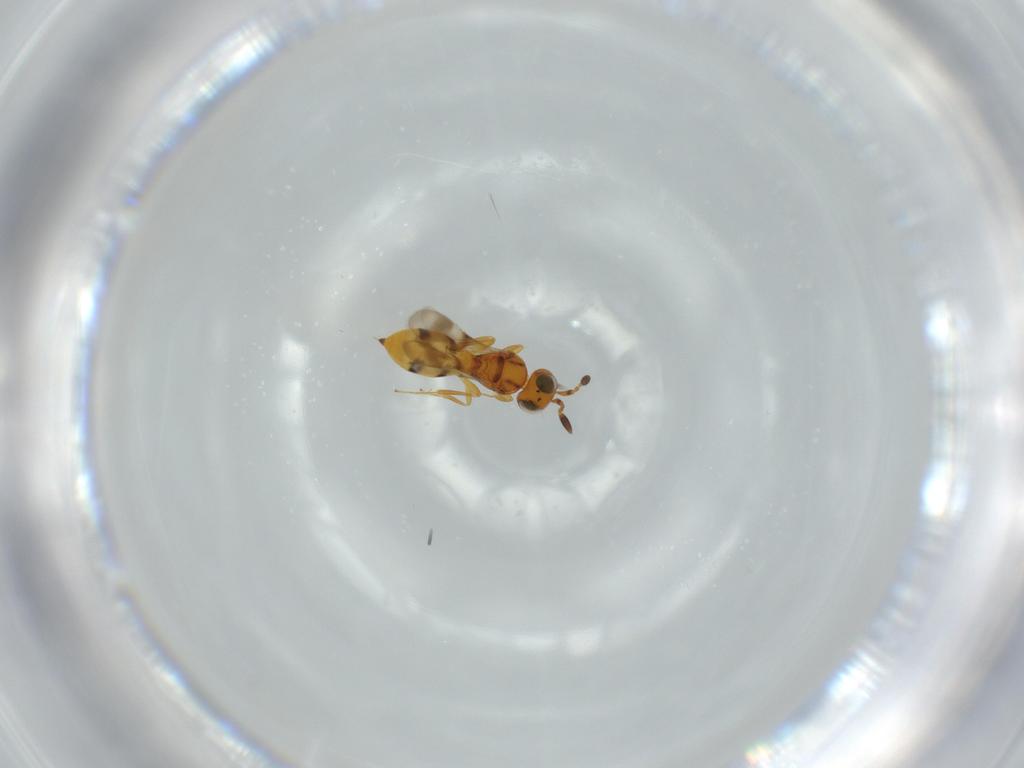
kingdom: Animalia
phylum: Arthropoda
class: Insecta
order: Hymenoptera
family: Scelionidae
